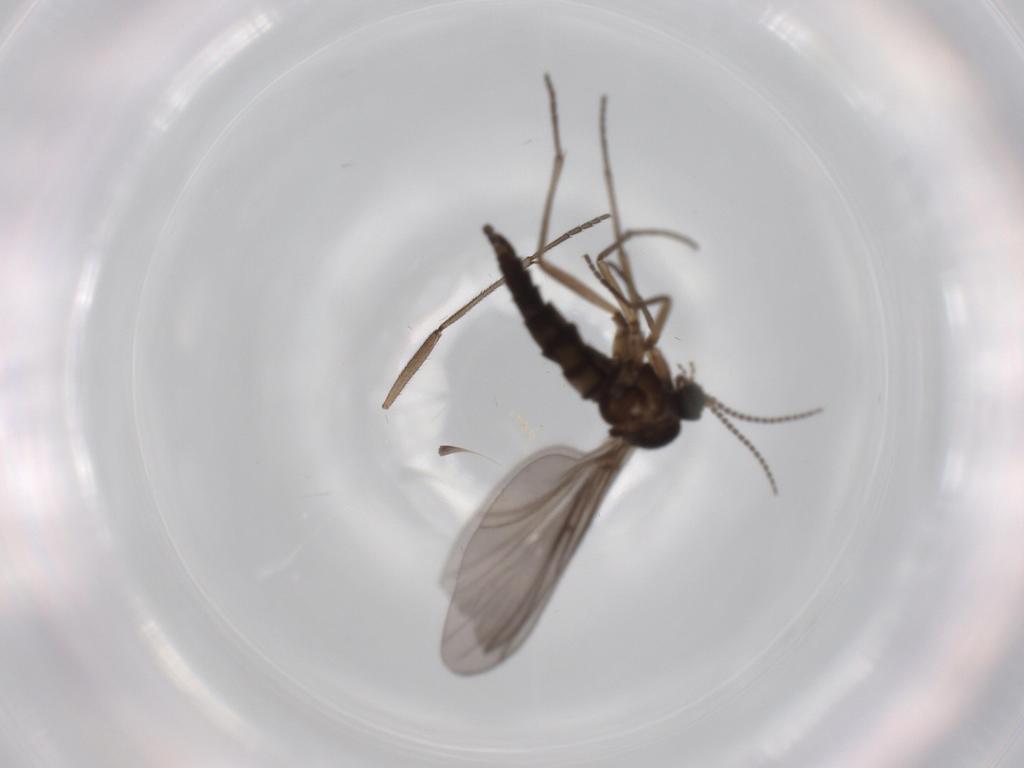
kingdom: Animalia
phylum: Arthropoda
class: Insecta
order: Diptera
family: Sciaridae
